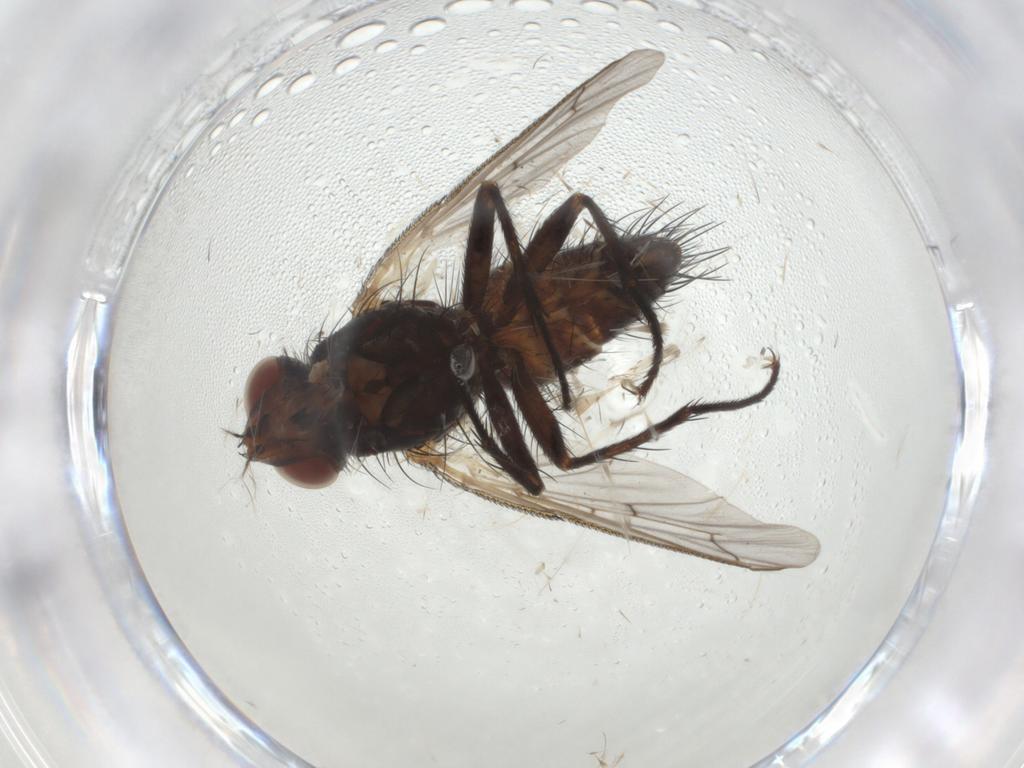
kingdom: Animalia
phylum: Arthropoda
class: Insecta
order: Diptera
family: Tachinidae
